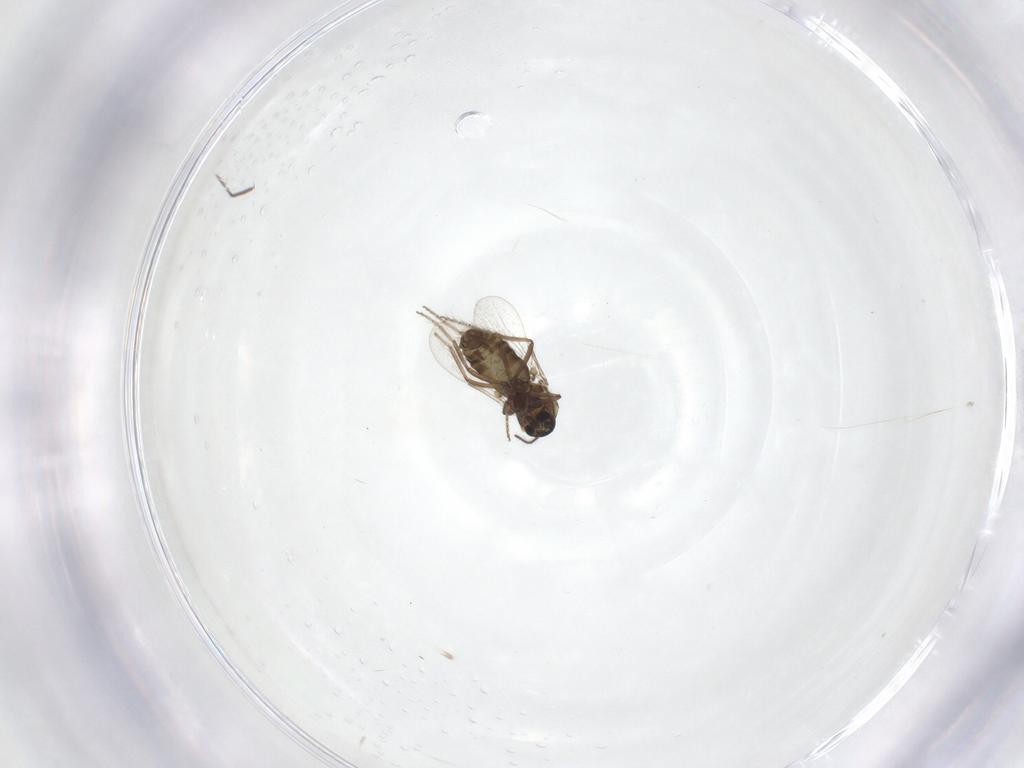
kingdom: Animalia
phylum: Arthropoda
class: Insecta
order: Diptera
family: Ceratopogonidae
